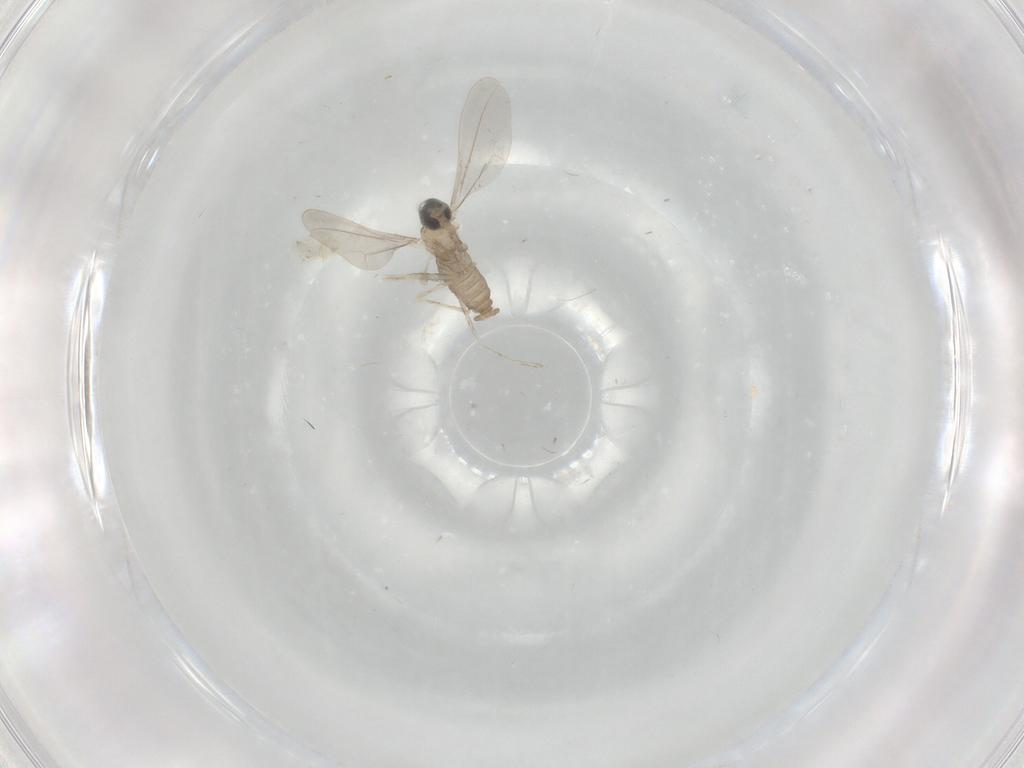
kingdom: Animalia
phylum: Arthropoda
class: Insecta
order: Diptera
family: Cecidomyiidae
